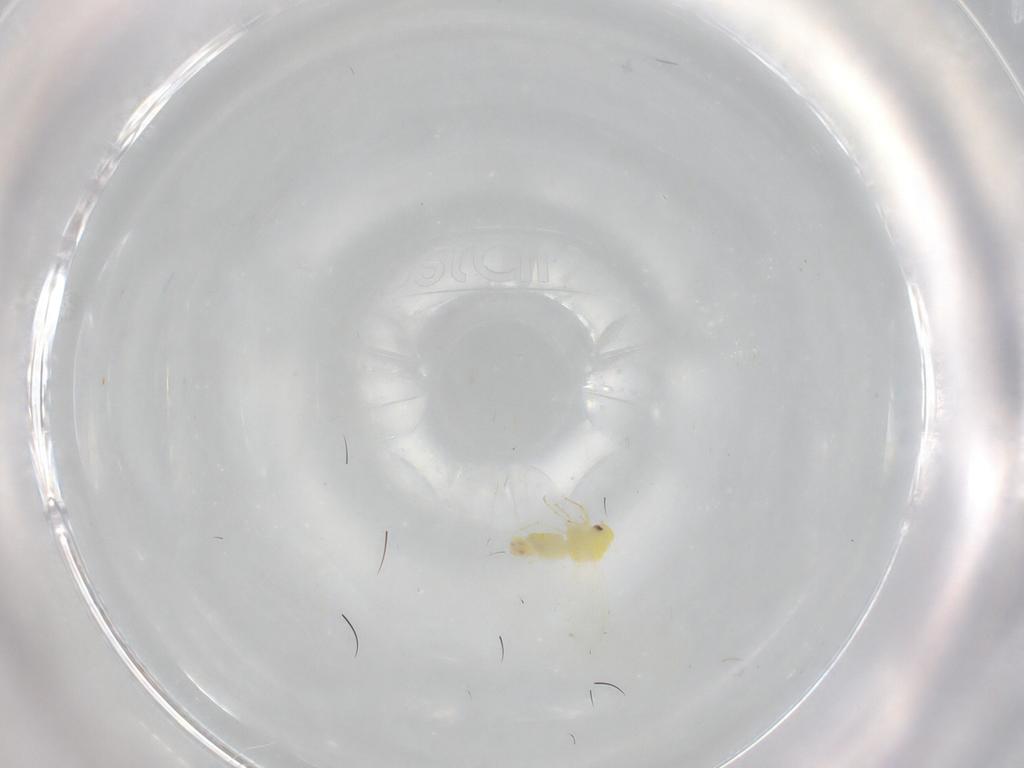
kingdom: Animalia
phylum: Arthropoda
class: Insecta
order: Hemiptera
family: Aleyrodidae
